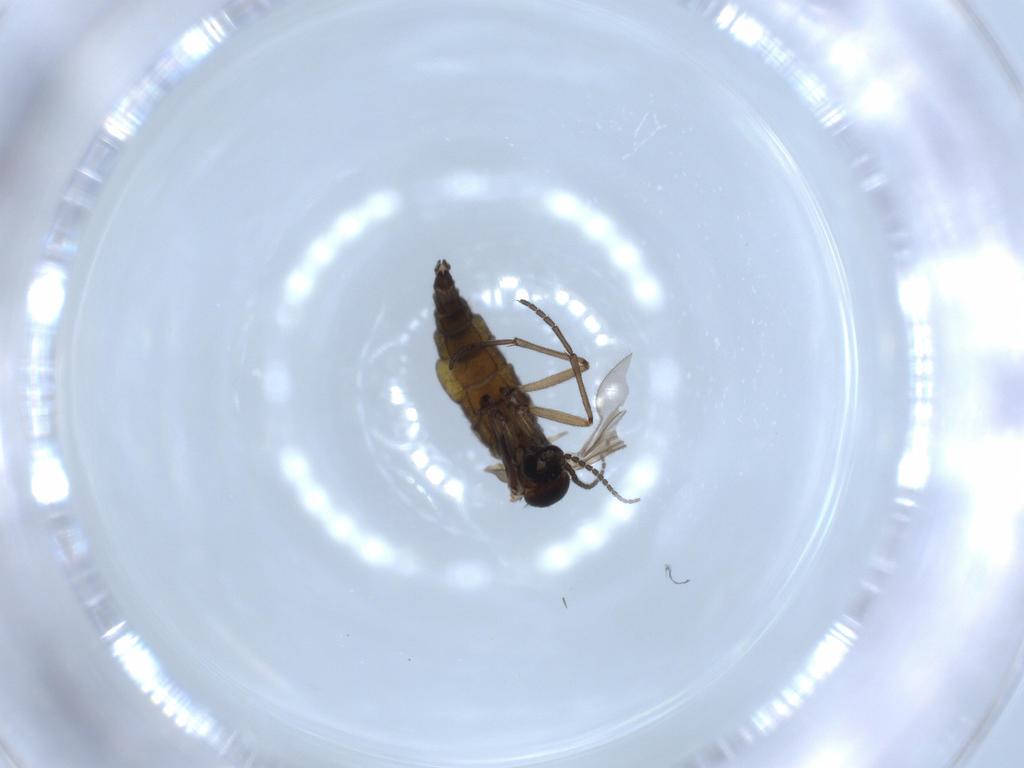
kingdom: Animalia
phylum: Arthropoda
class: Insecta
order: Diptera
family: Sciaridae
